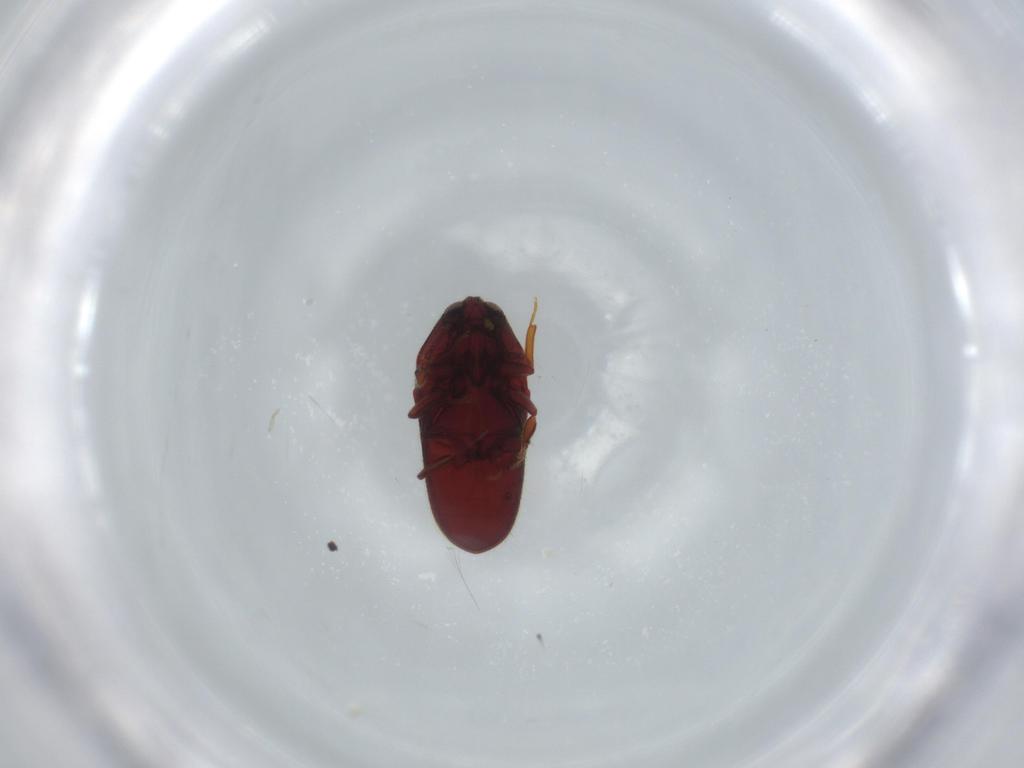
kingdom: Animalia
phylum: Arthropoda
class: Insecta
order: Coleoptera
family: Throscidae
